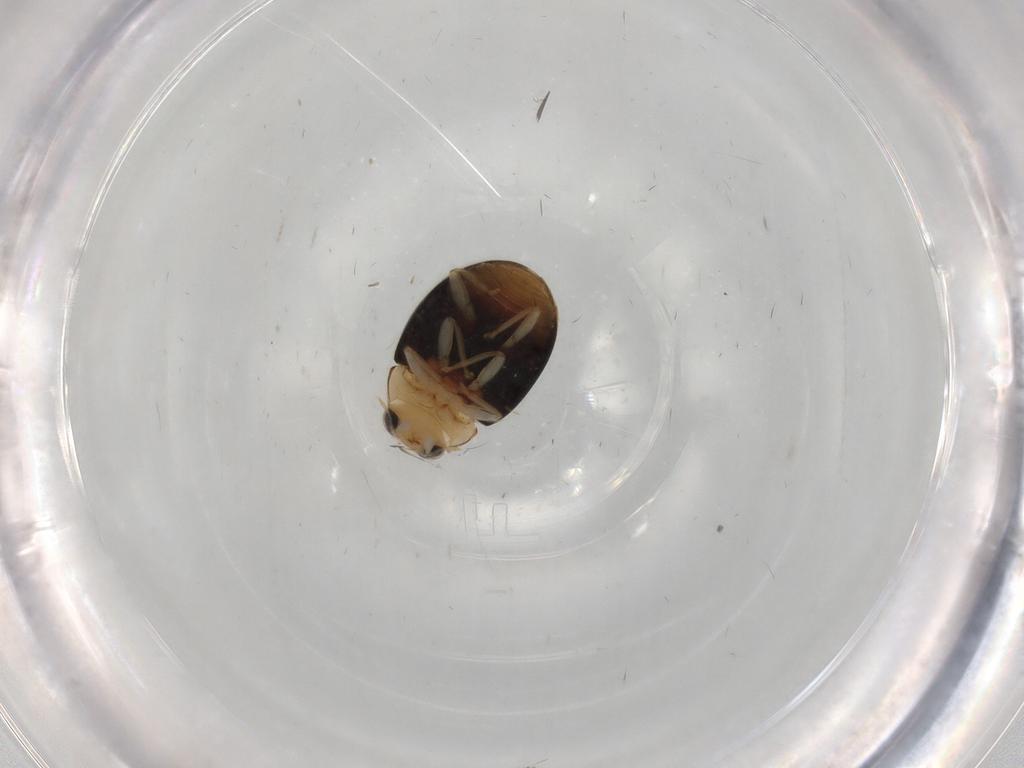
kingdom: Animalia
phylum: Arthropoda
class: Insecta
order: Coleoptera
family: Coccinellidae
